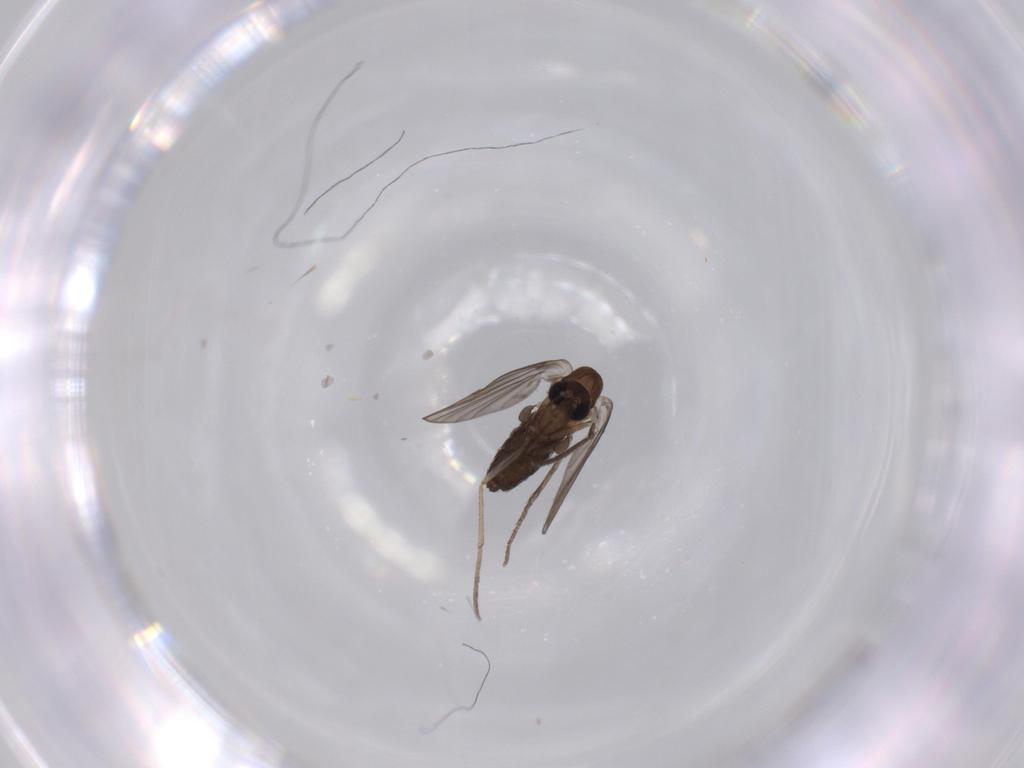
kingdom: Animalia
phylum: Arthropoda
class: Insecta
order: Diptera
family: Psychodidae
